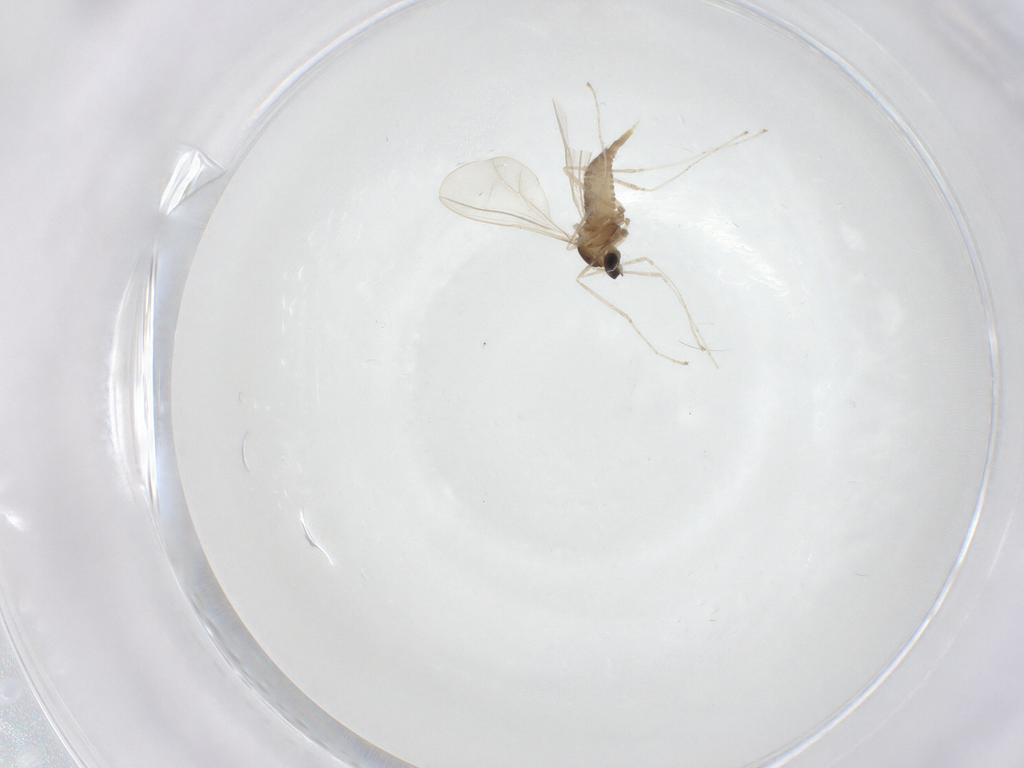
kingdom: Animalia
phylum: Arthropoda
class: Insecta
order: Diptera
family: Cecidomyiidae
